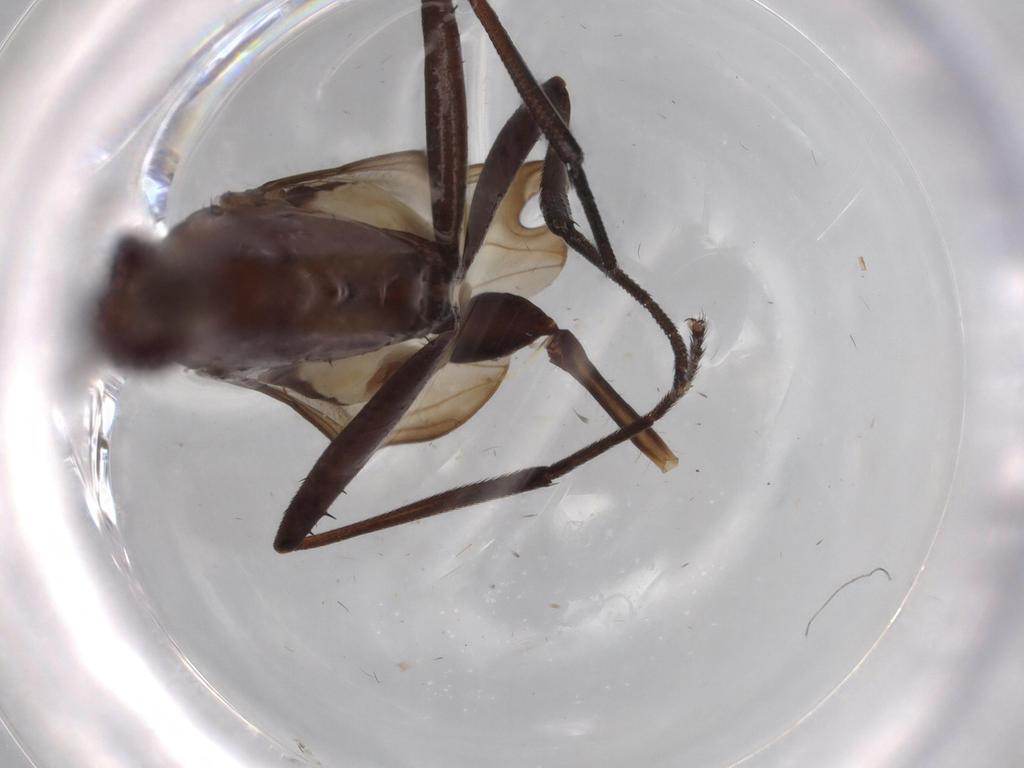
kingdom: Animalia
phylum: Arthropoda
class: Insecta
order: Diptera
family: Neriidae
